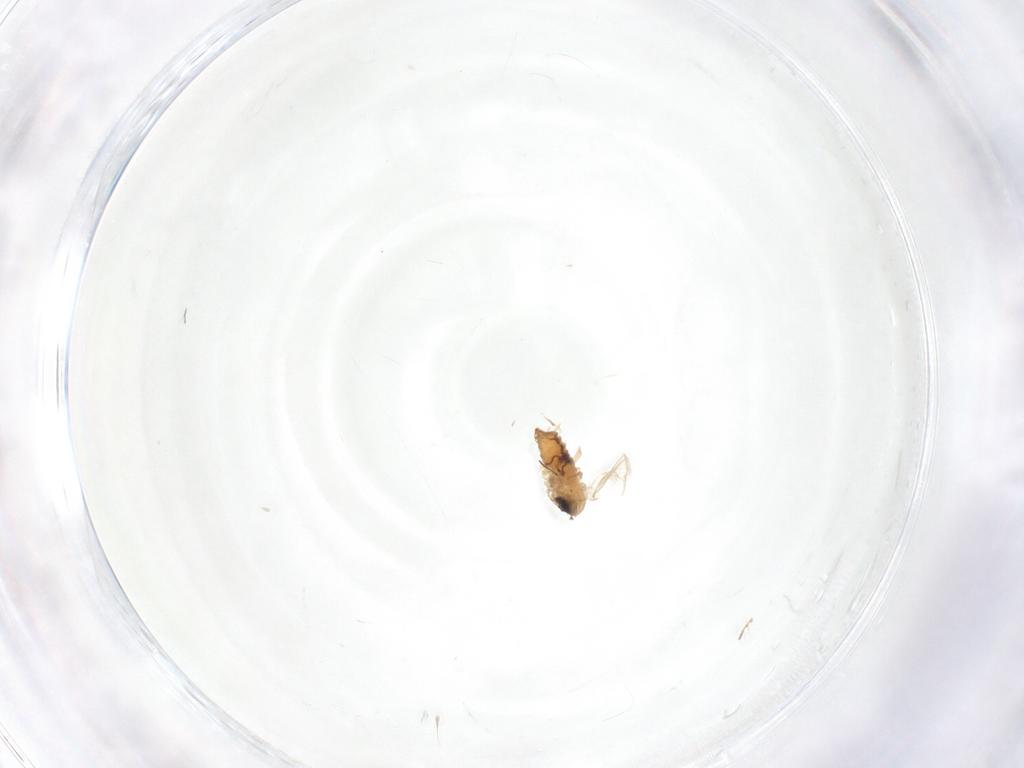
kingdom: Animalia
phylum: Arthropoda
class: Insecta
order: Diptera
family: Psychodidae
